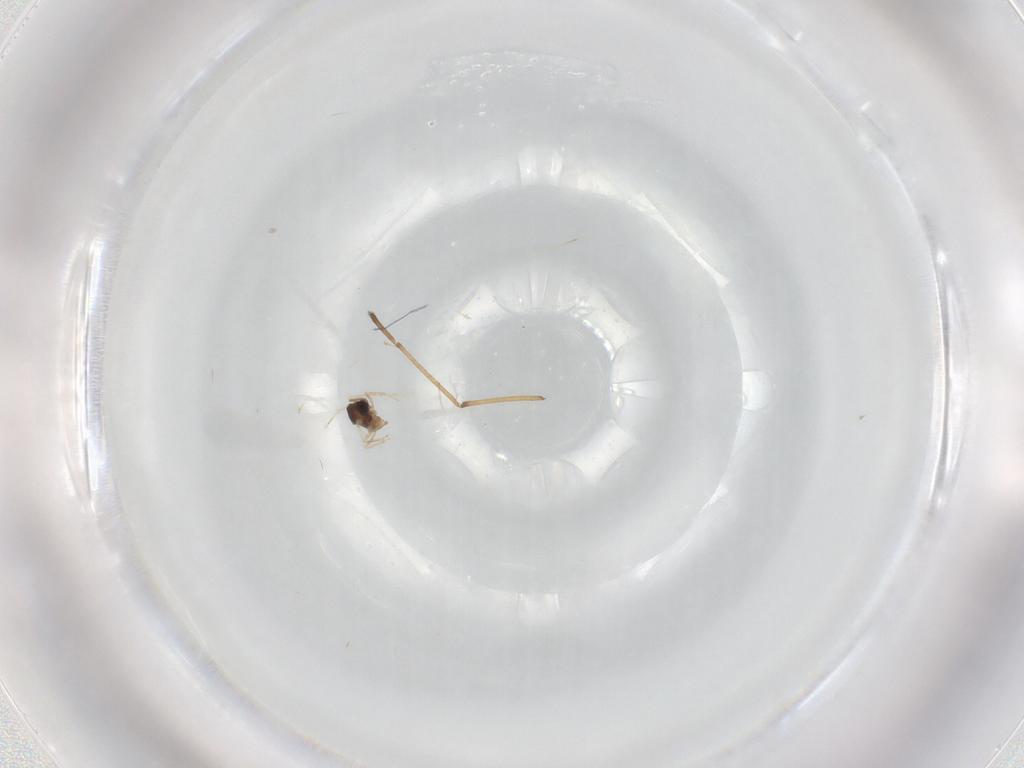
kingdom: Animalia
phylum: Arthropoda
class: Insecta
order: Diptera
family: Cecidomyiidae
